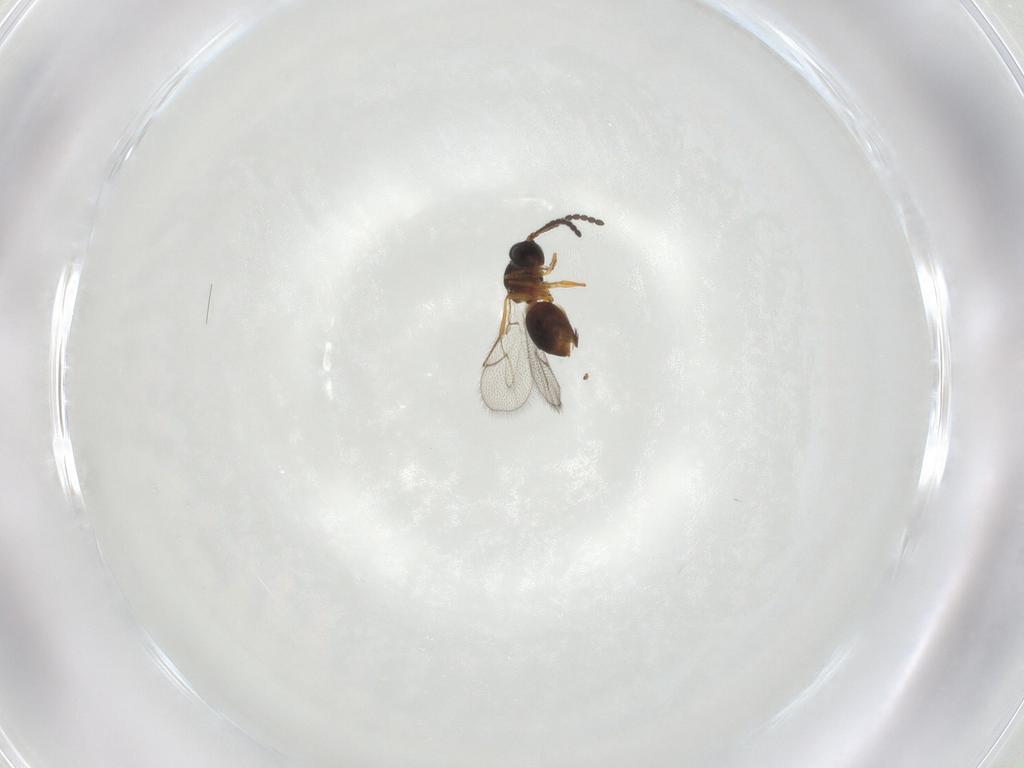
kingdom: Animalia
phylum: Arthropoda
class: Insecta
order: Hymenoptera
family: Figitidae
